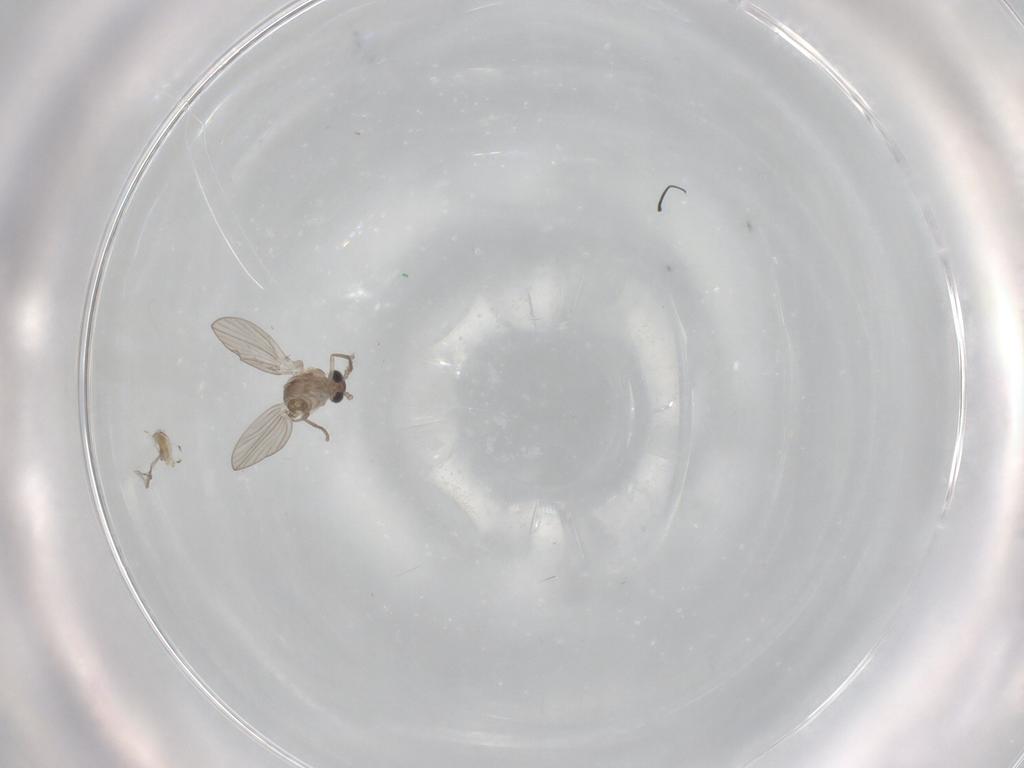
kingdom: Animalia
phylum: Arthropoda
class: Insecta
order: Diptera
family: Psychodidae
